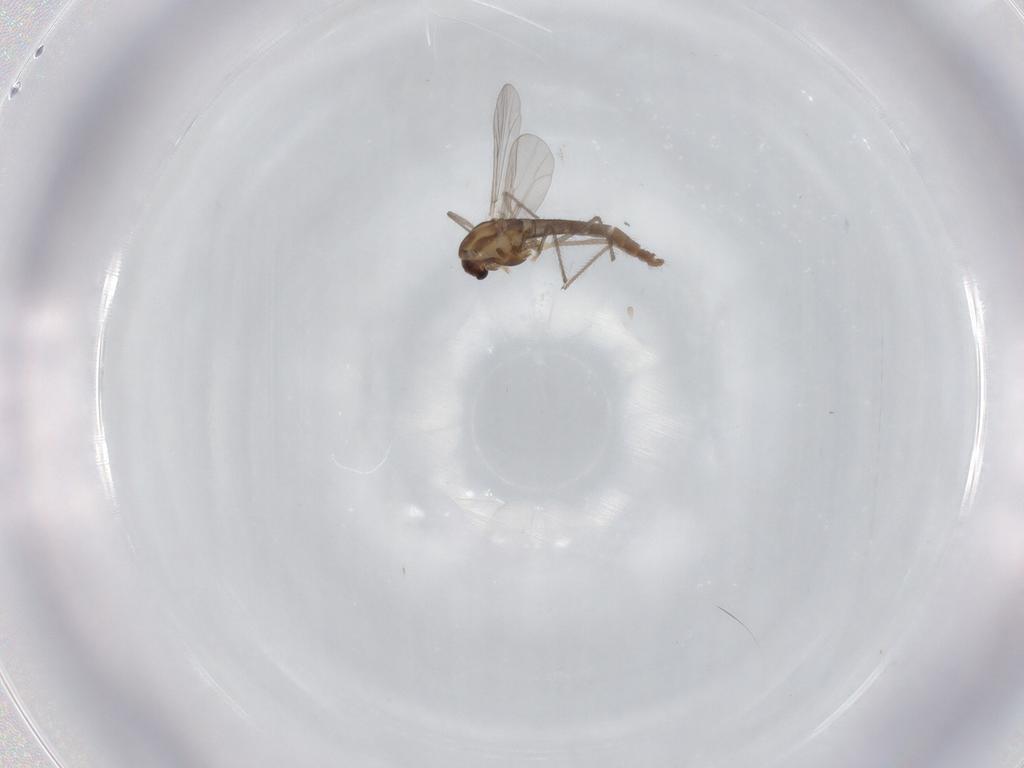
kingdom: Animalia
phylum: Arthropoda
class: Insecta
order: Diptera
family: Chironomidae
